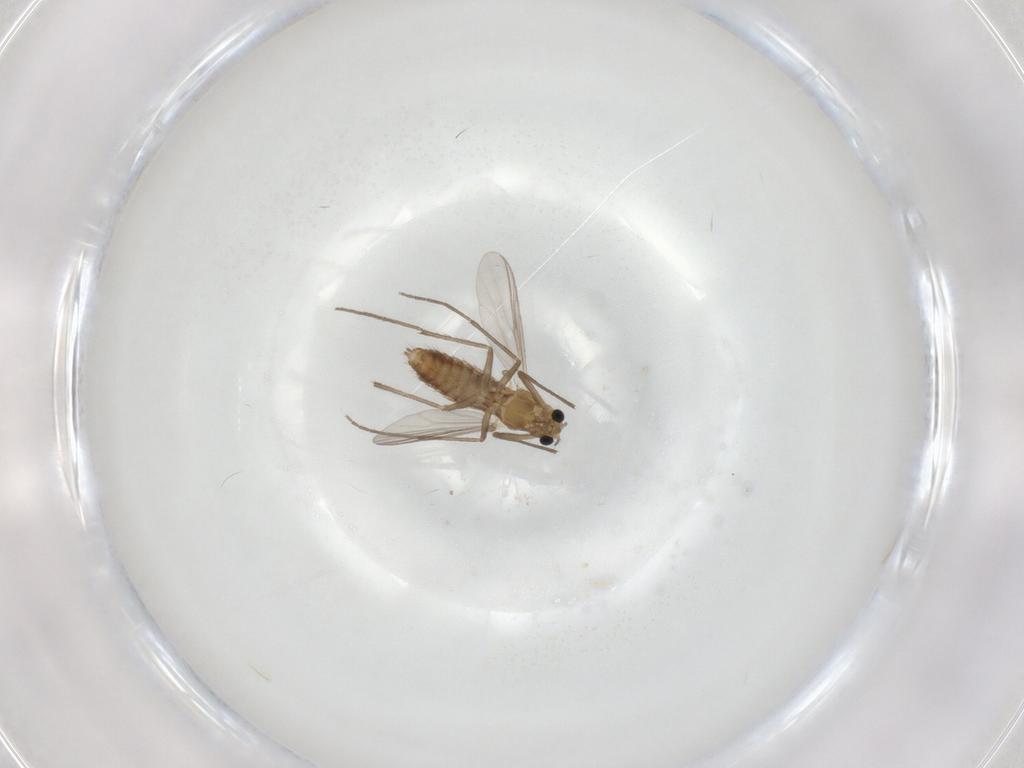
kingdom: Animalia
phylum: Arthropoda
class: Insecta
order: Diptera
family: Chironomidae
